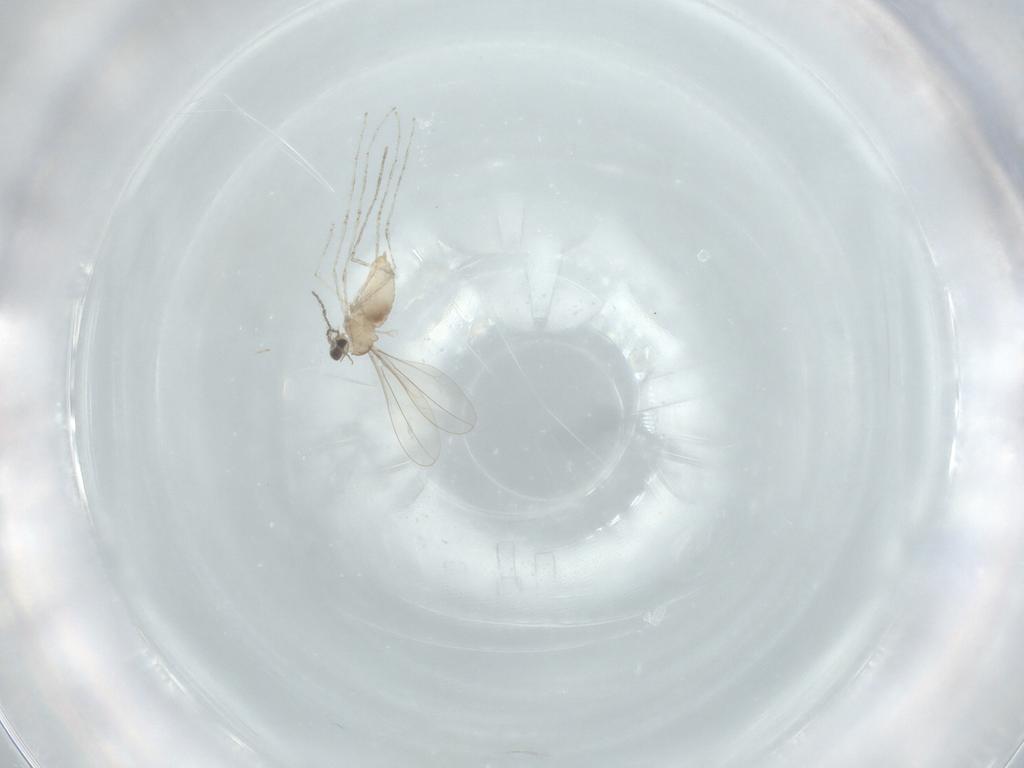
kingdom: Animalia
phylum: Arthropoda
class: Insecta
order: Diptera
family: Cecidomyiidae
